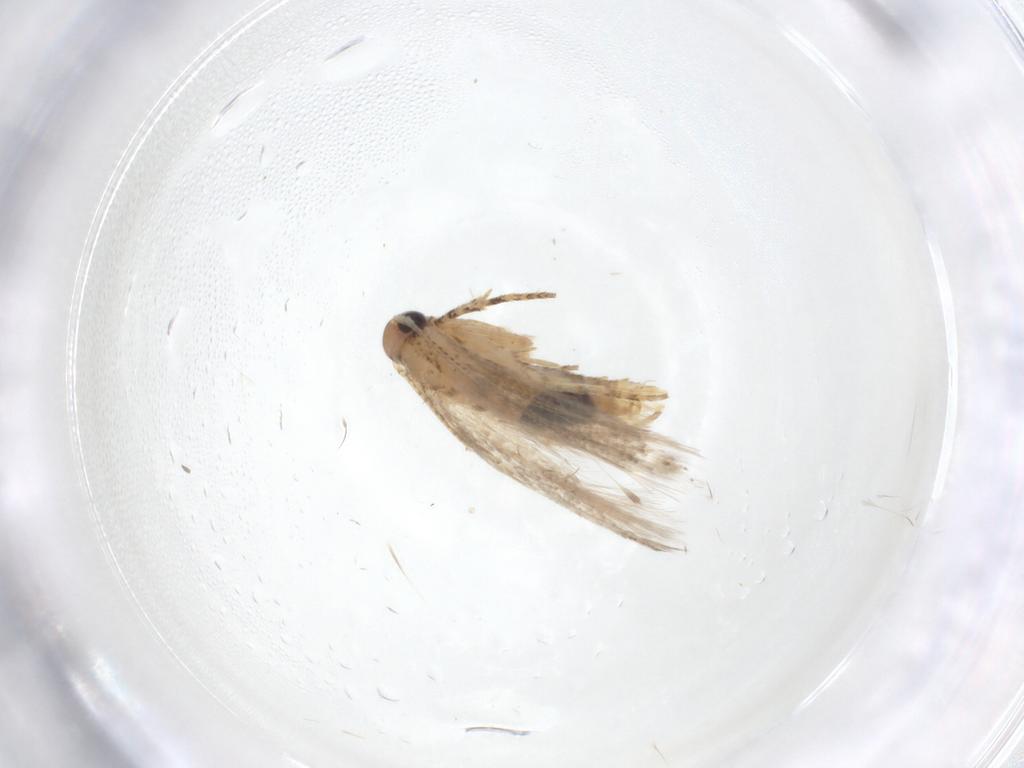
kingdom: Animalia
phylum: Arthropoda
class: Insecta
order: Lepidoptera
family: Gelechiidae
